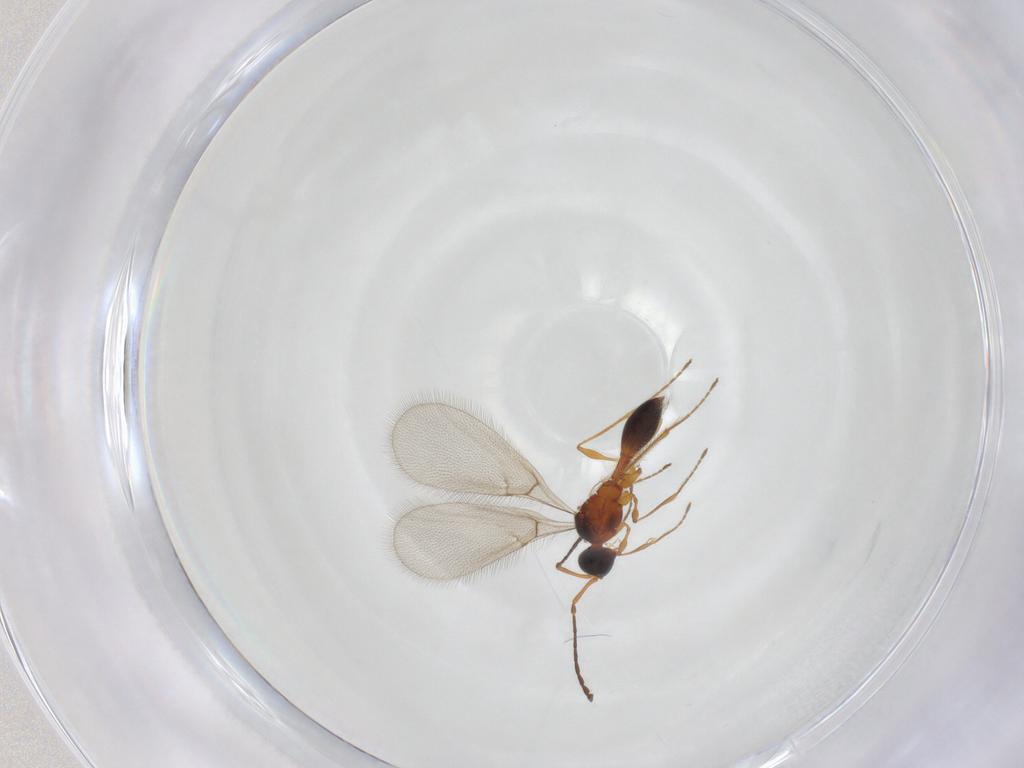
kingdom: Animalia
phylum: Arthropoda
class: Insecta
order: Hymenoptera
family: Diapriidae
